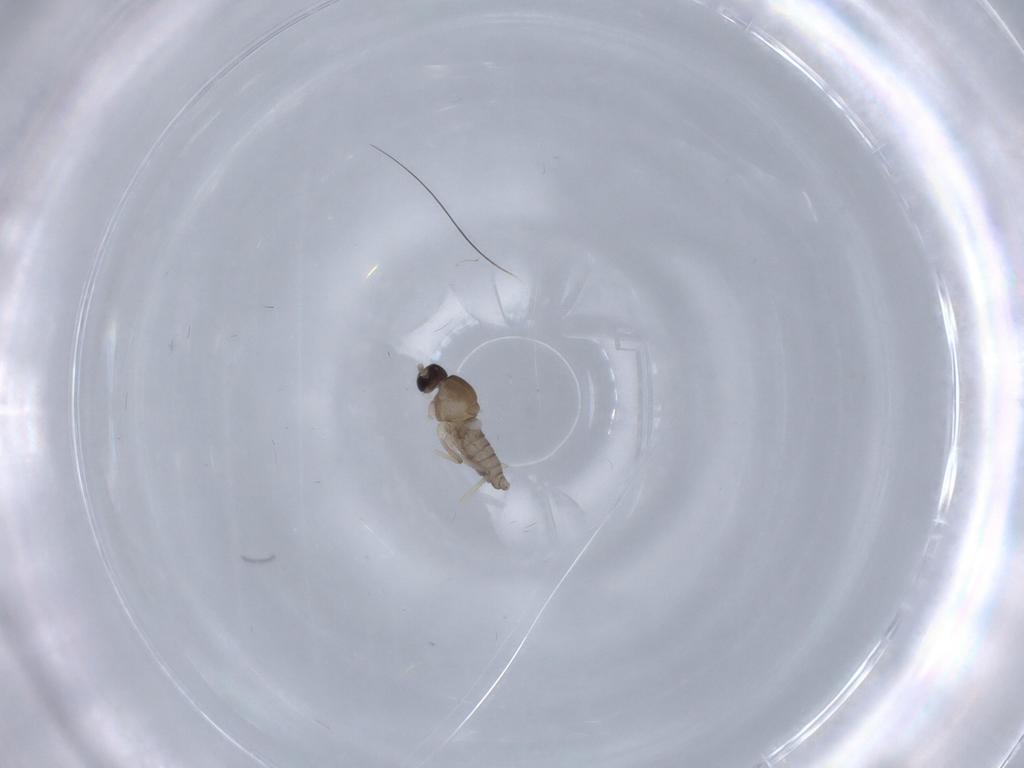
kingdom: Animalia
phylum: Arthropoda
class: Insecta
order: Diptera
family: Cecidomyiidae
